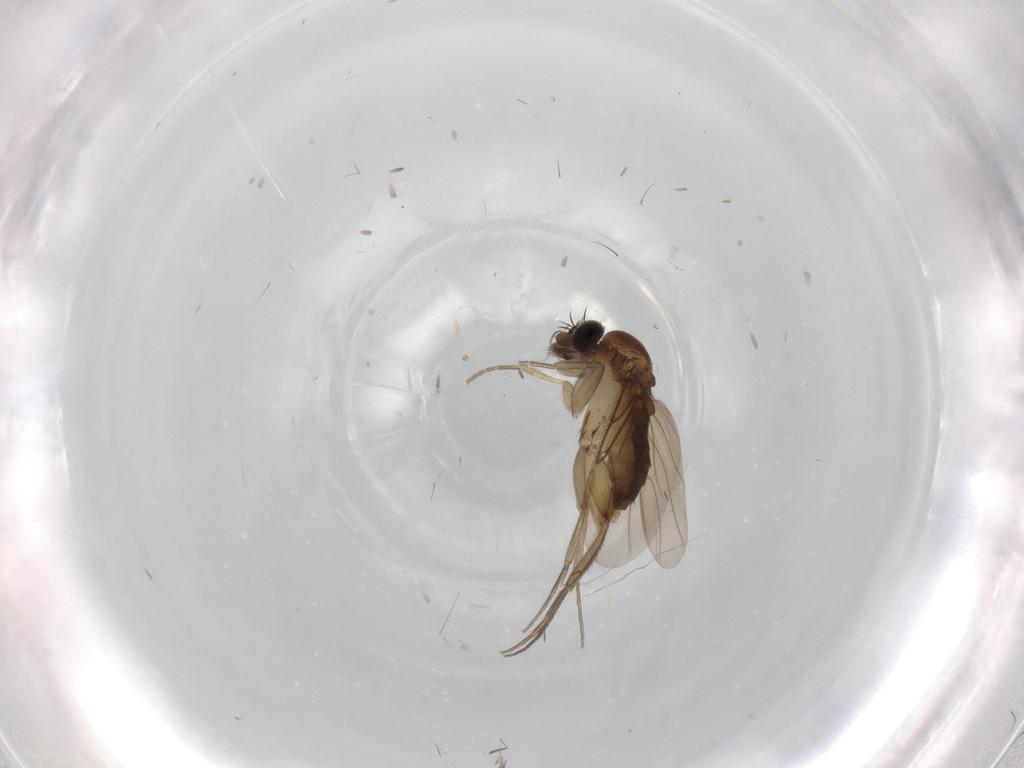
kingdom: Animalia
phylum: Arthropoda
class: Insecta
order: Diptera
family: Phoridae
